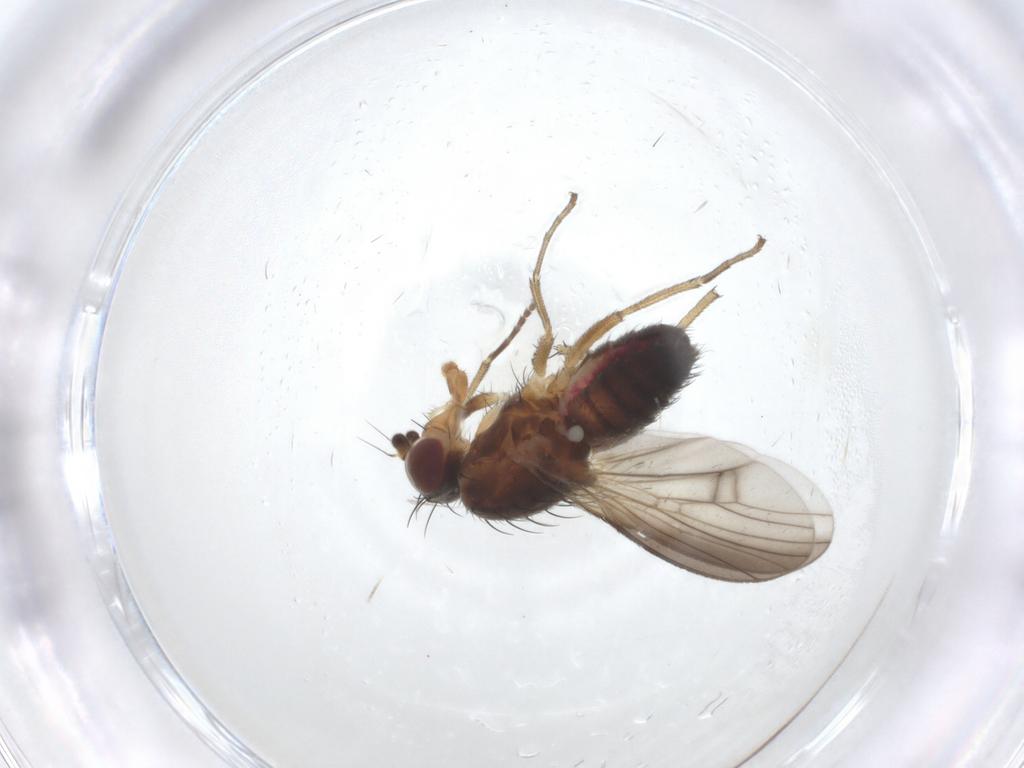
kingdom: Animalia
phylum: Arthropoda
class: Insecta
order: Diptera
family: Heleomyzidae
